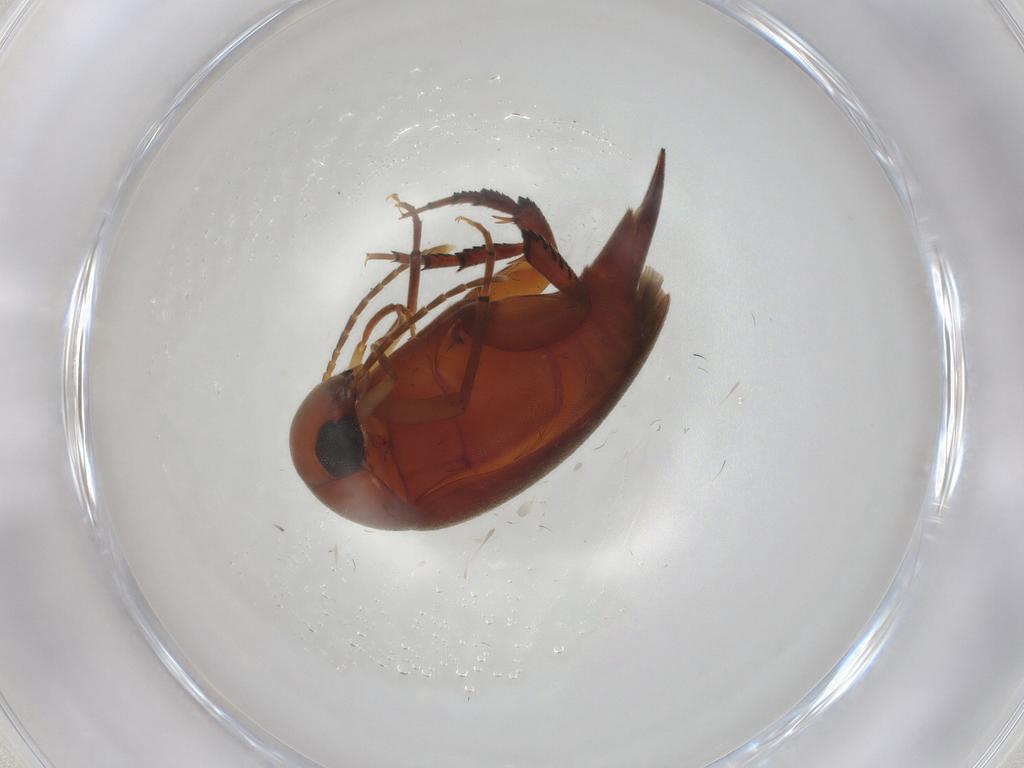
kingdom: Animalia
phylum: Arthropoda
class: Insecta
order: Coleoptera
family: Mordellidae
